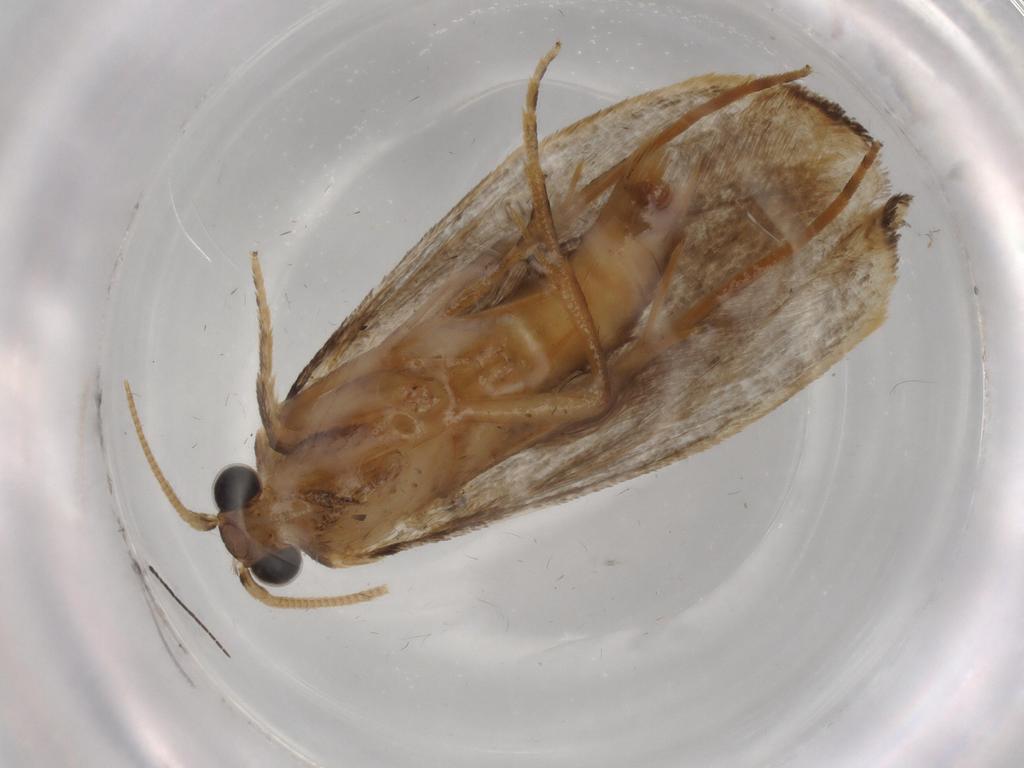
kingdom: Animalia
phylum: Arthropoda
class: Insecta
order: Lepidoptera
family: Tineidae
